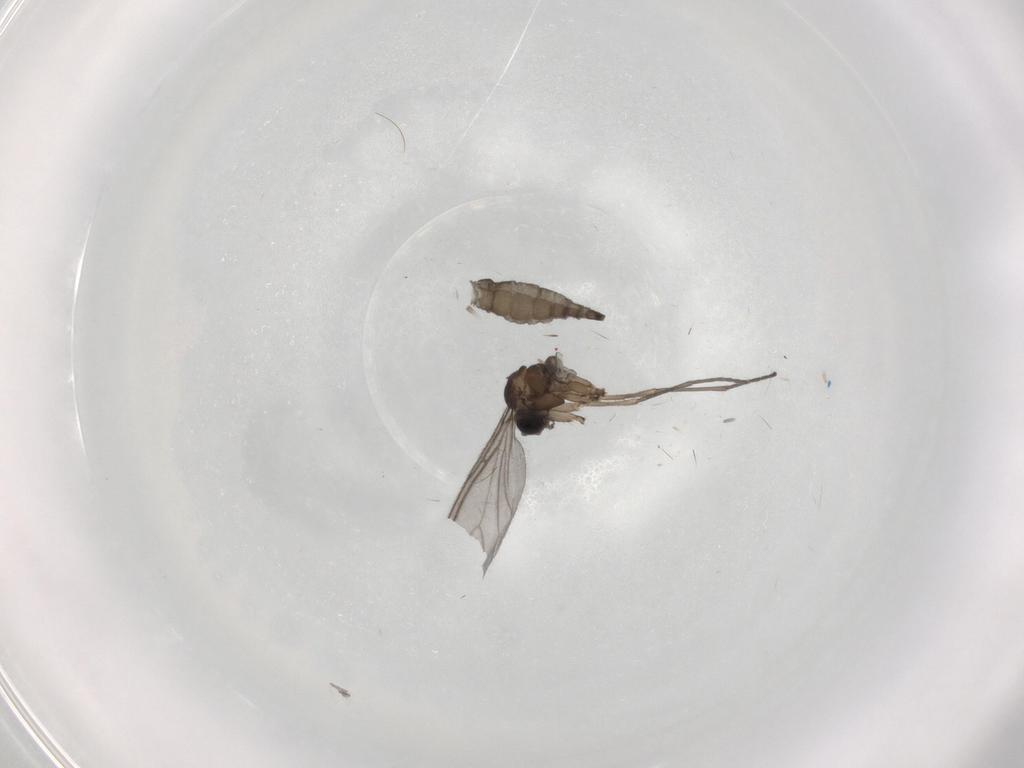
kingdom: Animalia
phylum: Arthropoda
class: Insecta
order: Diptera
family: Sciaridae
